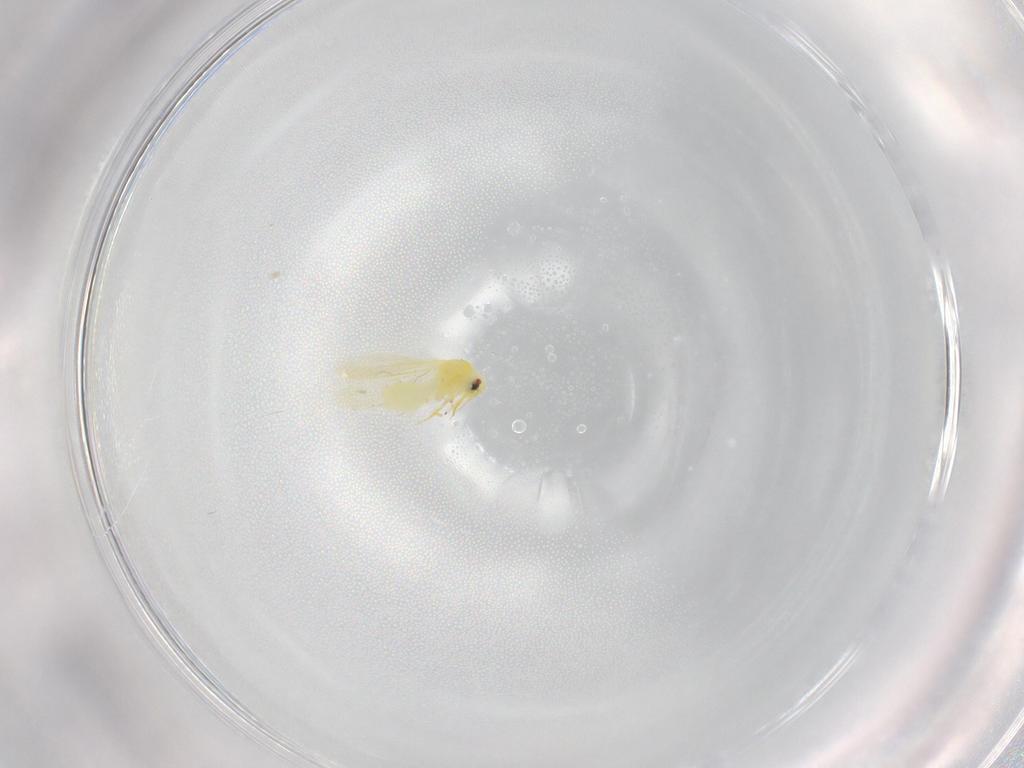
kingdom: Animalia
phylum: Arthropoda
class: Insecta
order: Hemiptera
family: Aleyrodidae
